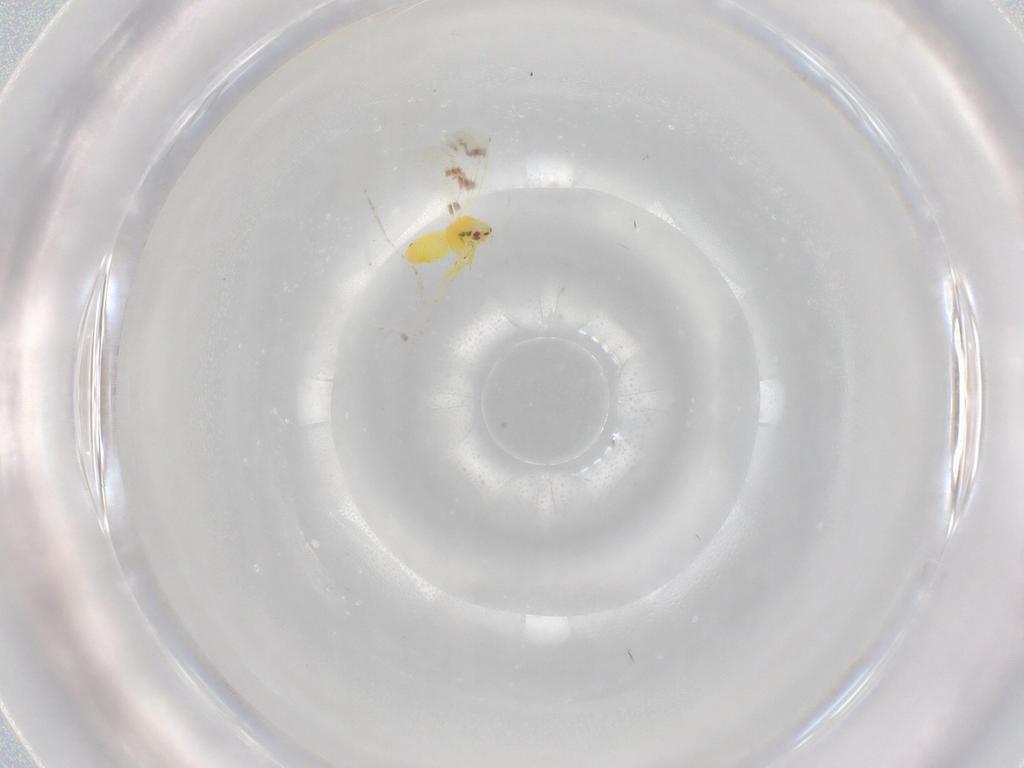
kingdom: Animalia
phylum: Arthropoda
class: Insecta
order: Hemiptera
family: Aleyrodidae
